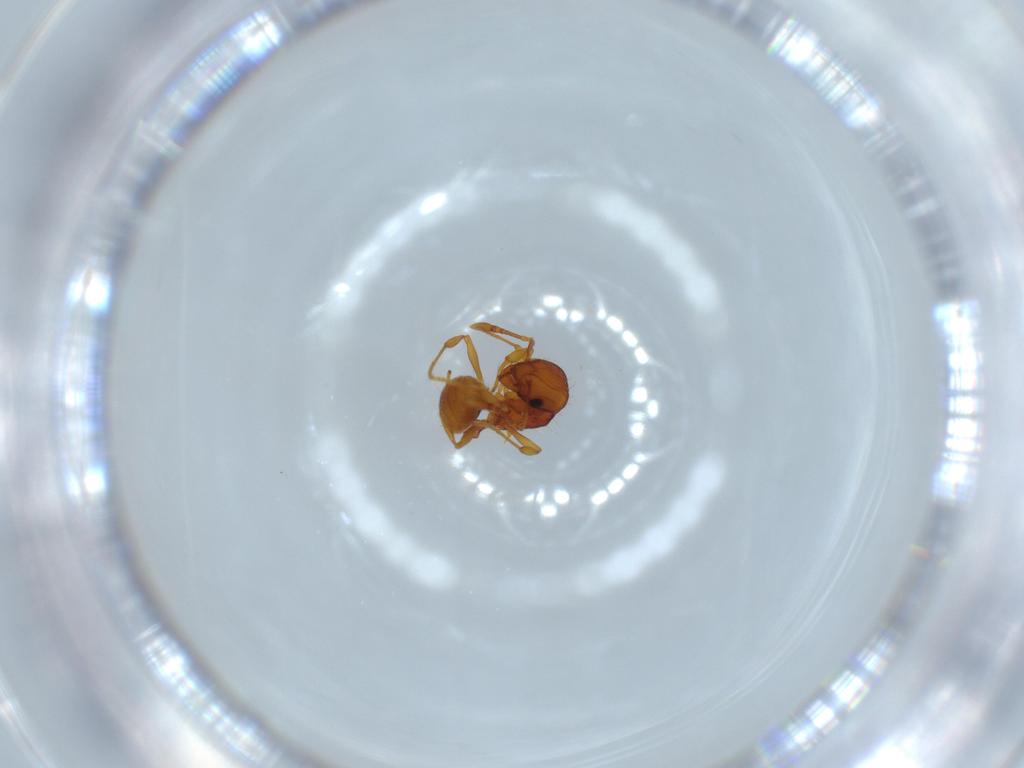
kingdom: Animalia
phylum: Arthropoda
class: Insecta
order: Hymenoptera
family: Formicidae
